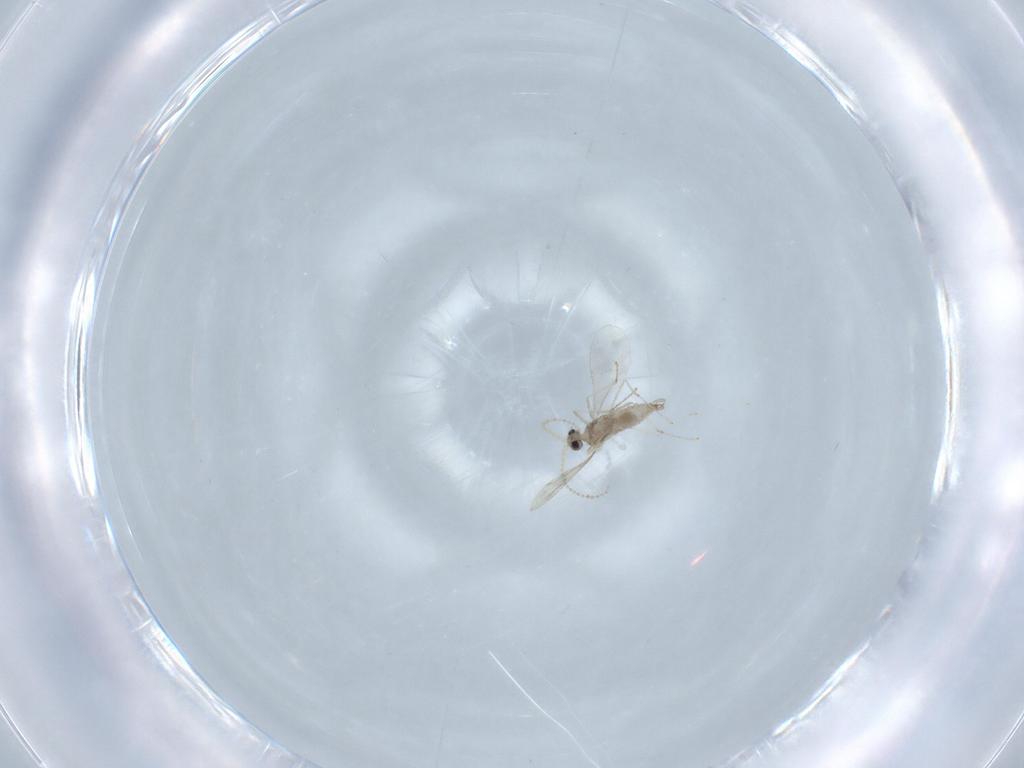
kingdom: Animalia
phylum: Arthropoda
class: Insecta
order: Diptera
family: Cecidomyiidae
